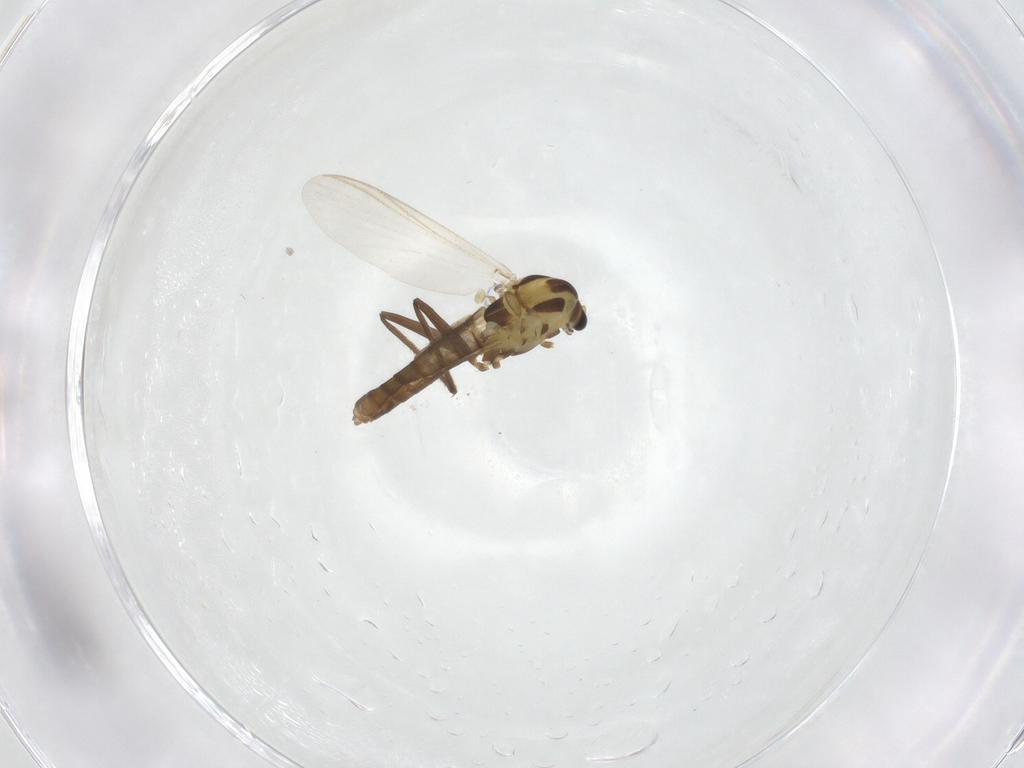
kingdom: Animalia
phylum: Arthropoda
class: Insecta
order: Diptera
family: Chironomidae
